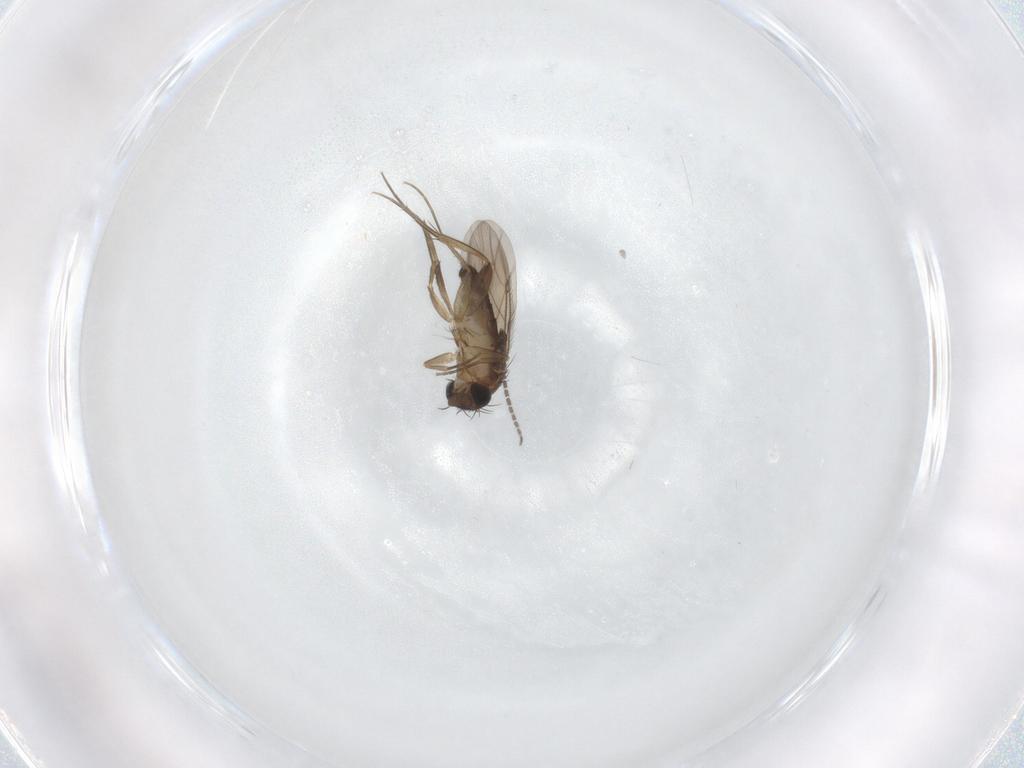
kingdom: Animalia
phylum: Arthropoda
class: Insecta
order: Diptera
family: Phoridae
